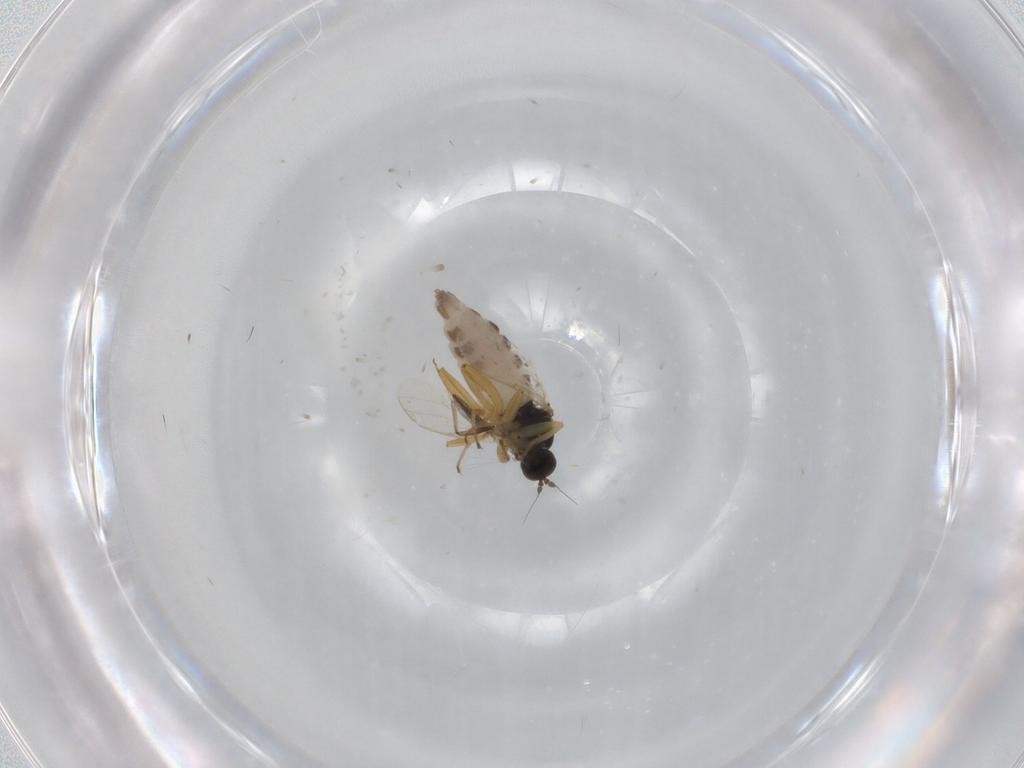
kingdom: Animalia
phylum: Arthropoda
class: Insecta
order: Diptera
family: Hybotidae
